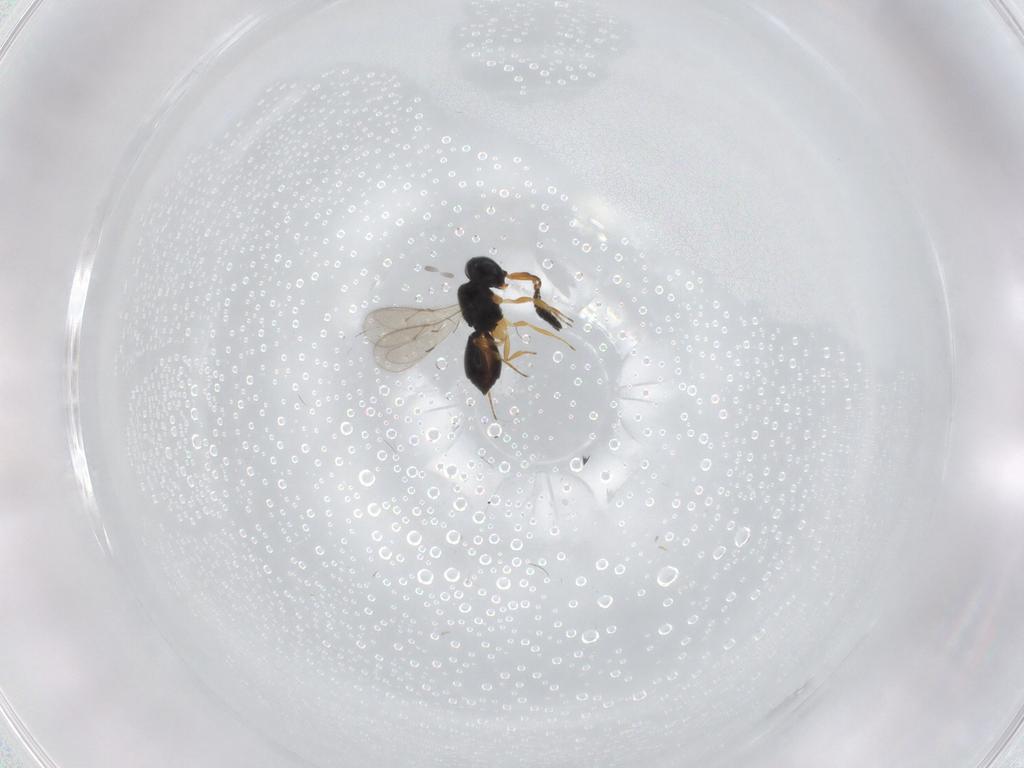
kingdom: Animalia
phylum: Arthropoda
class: Insecta
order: Hymenoptera
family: Scelionidae
